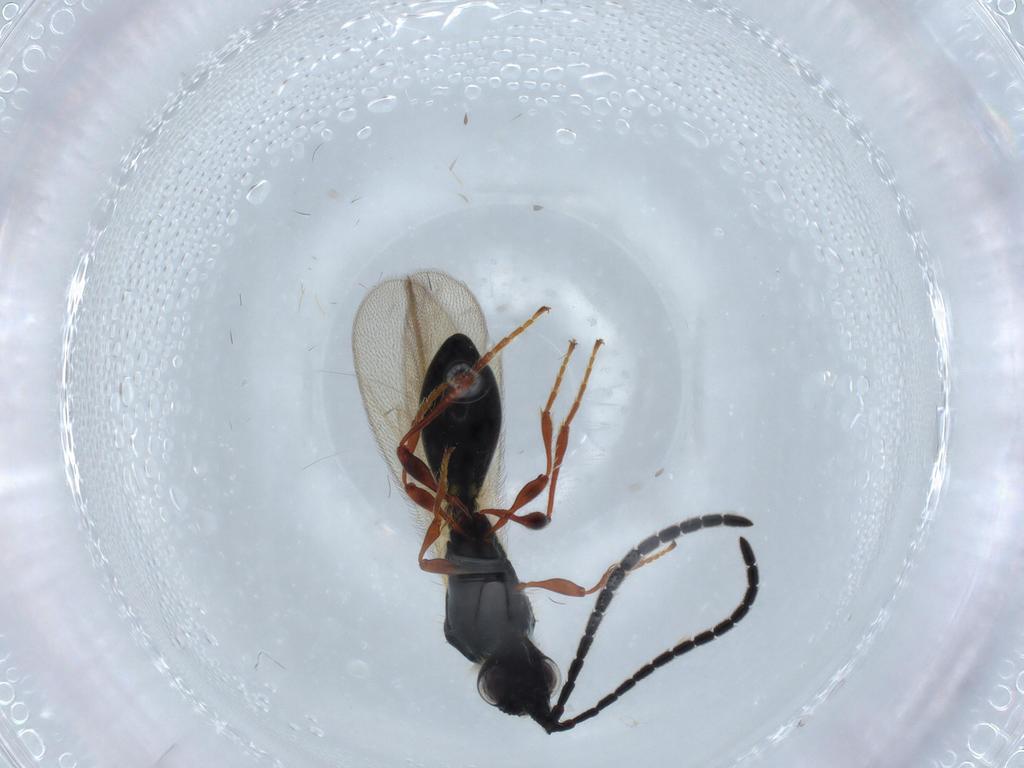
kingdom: Animalia
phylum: Arthropoda
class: Insecta
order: Hymenoptera
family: Diapriidae
